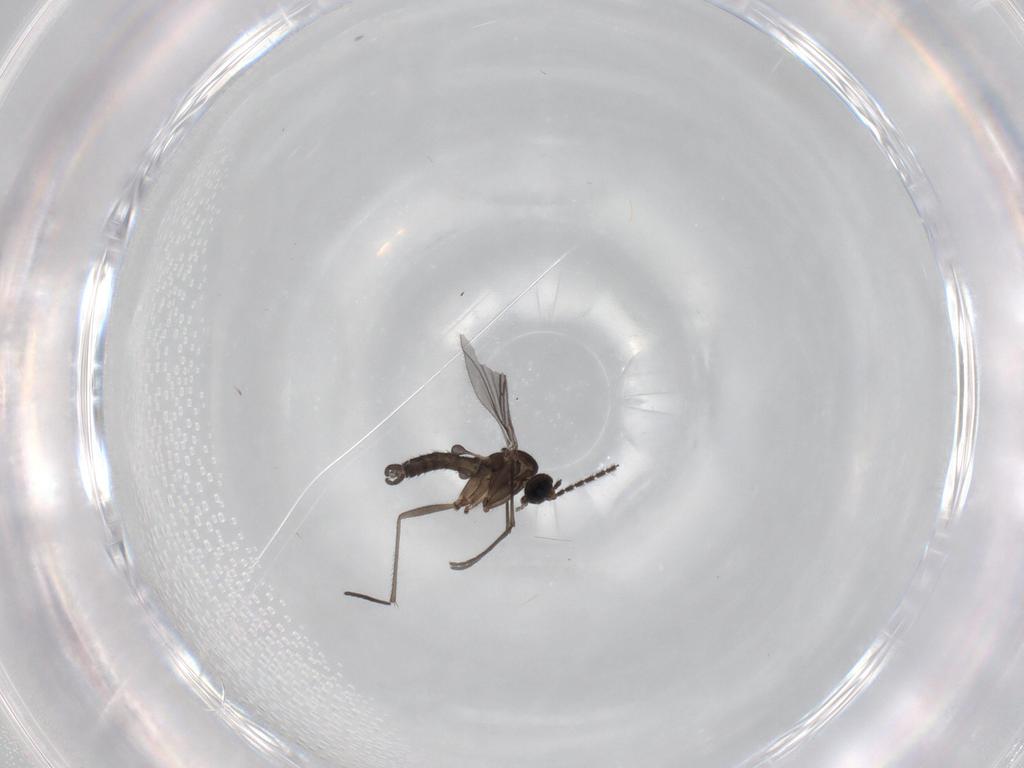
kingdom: Animalia
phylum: Arthropoda
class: Insecta
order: Diptera
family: Sciaridae
